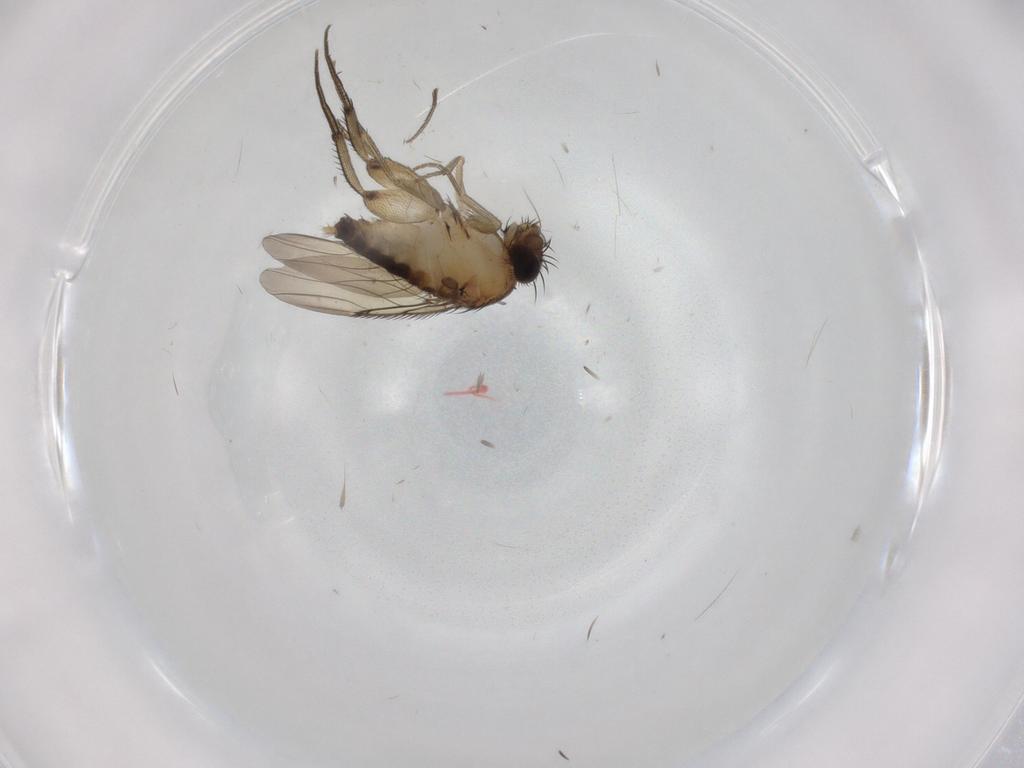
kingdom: Animalia
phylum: Arthropoda
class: Insecta
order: Diptera
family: Phoridae
